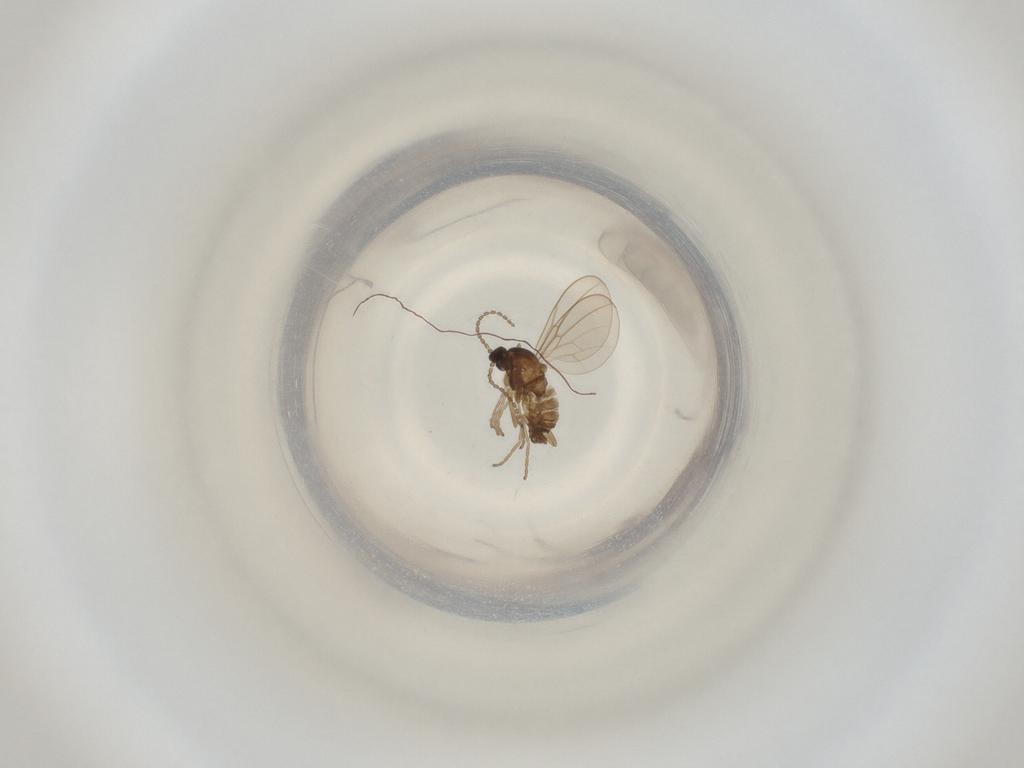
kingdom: Animalia
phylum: Arthropoda
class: Insecta
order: Diptera
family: Cecidomyiidae
